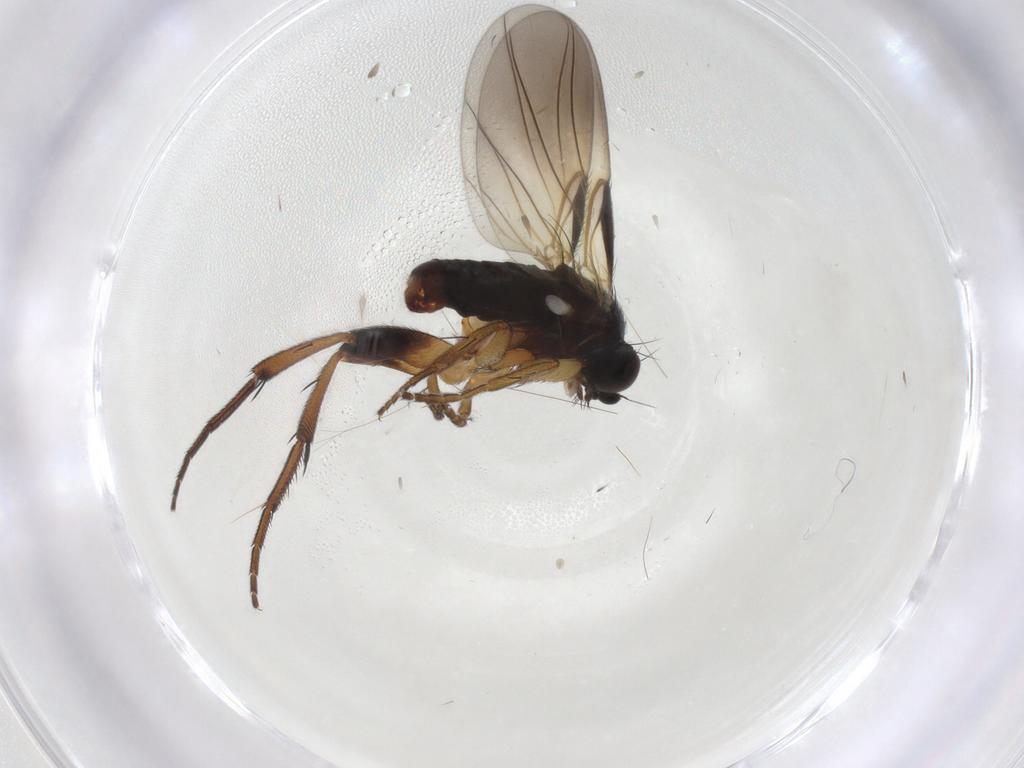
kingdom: Animalia
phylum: Arthropoda
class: Insecta
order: Diptera
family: Phoridae
